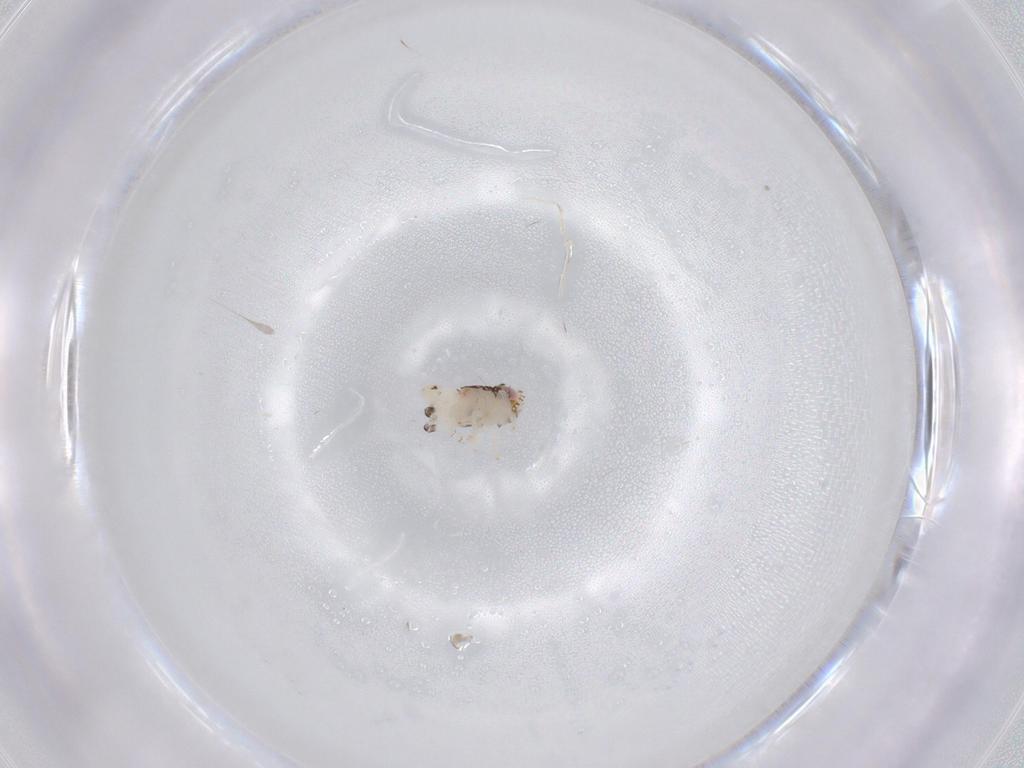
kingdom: Animalia
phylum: Arthropoda
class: Insecta
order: Hemiptera
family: Nogodinidae
